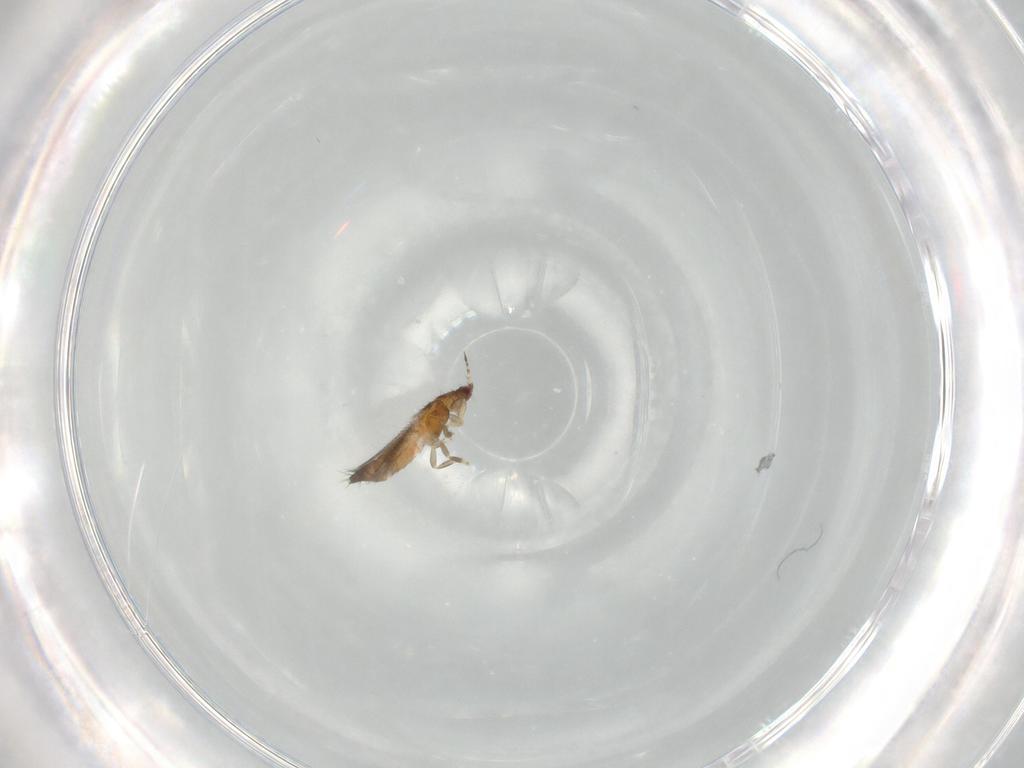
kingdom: Animalia
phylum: Arthropoda
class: Insecta
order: Thysanoptera
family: Thripidae
